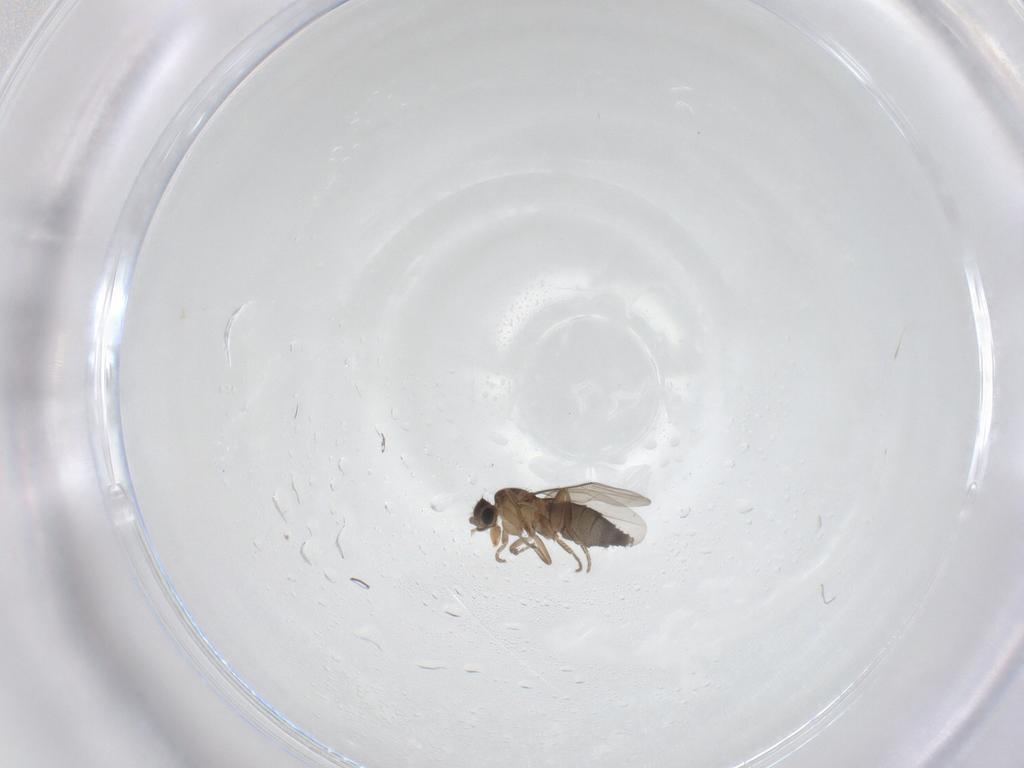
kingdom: Animalia
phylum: Arthropoda
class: Insecta
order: Diptera
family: Phoridae
